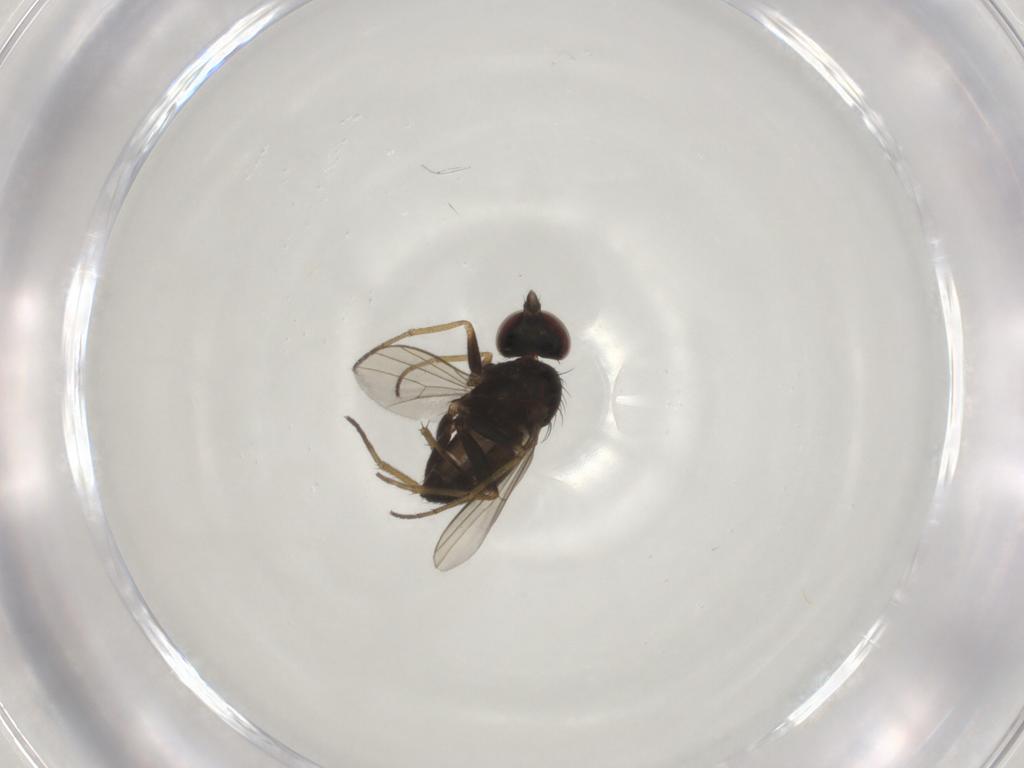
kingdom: Animalia
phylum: Arthropoda
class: Insecta
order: Diptera
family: Dolichopodidae
